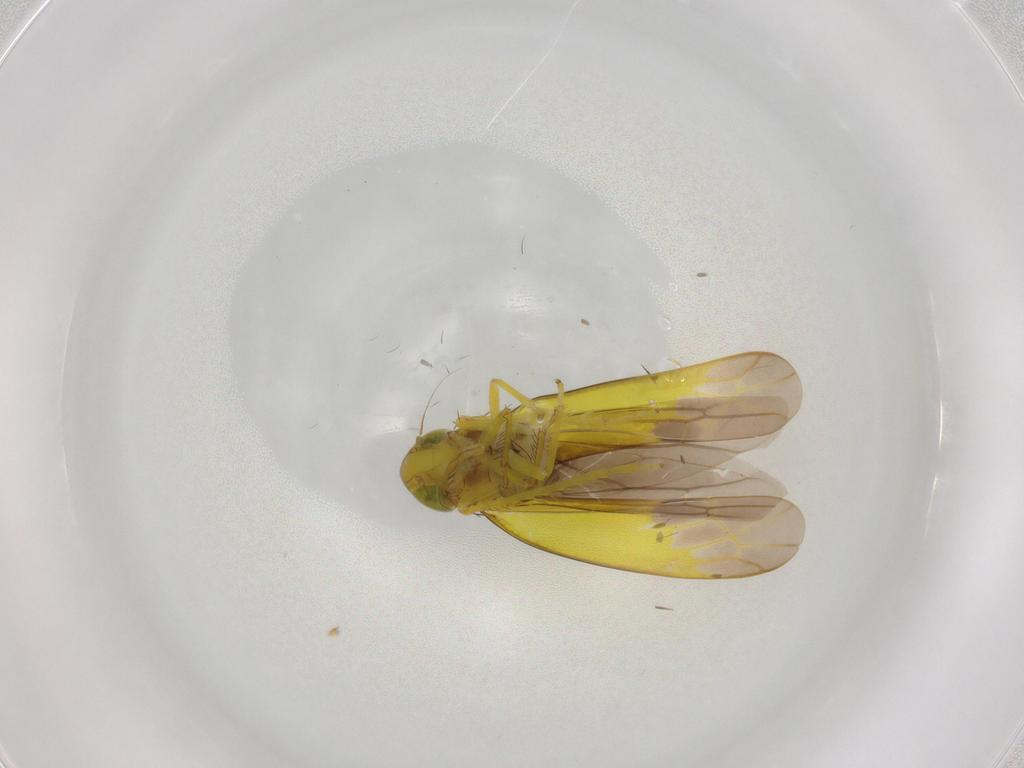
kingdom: Animalia
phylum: Arthropoda
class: Insecta
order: Hemiptera
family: Cicadellidae
